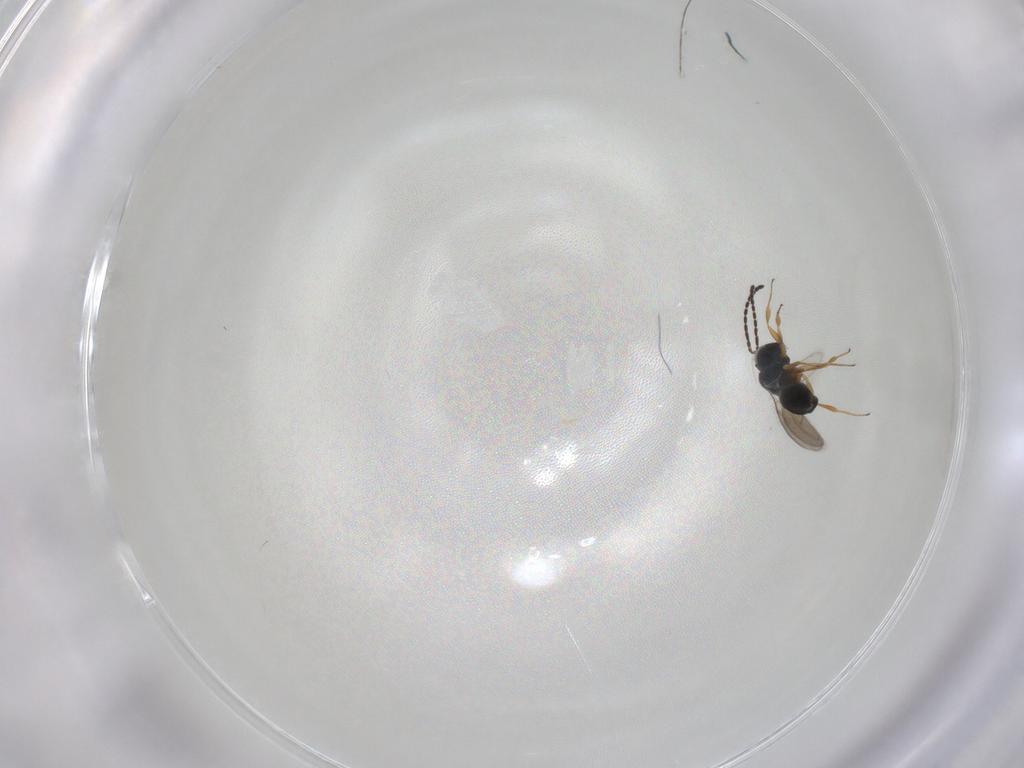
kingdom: Animalia
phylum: Arthropoda
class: Insecta
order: Hymenoptera
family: Scelionidae
